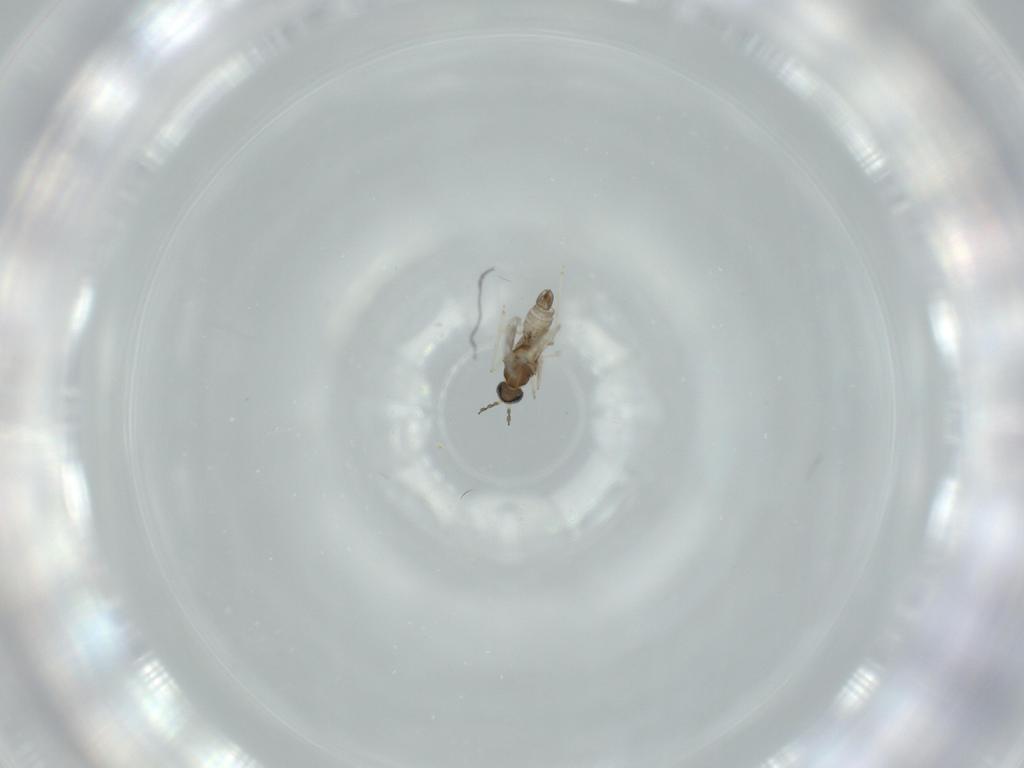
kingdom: Animalia
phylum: Arthropoda
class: Insecta
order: Diptera
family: Cecidomyiidae
